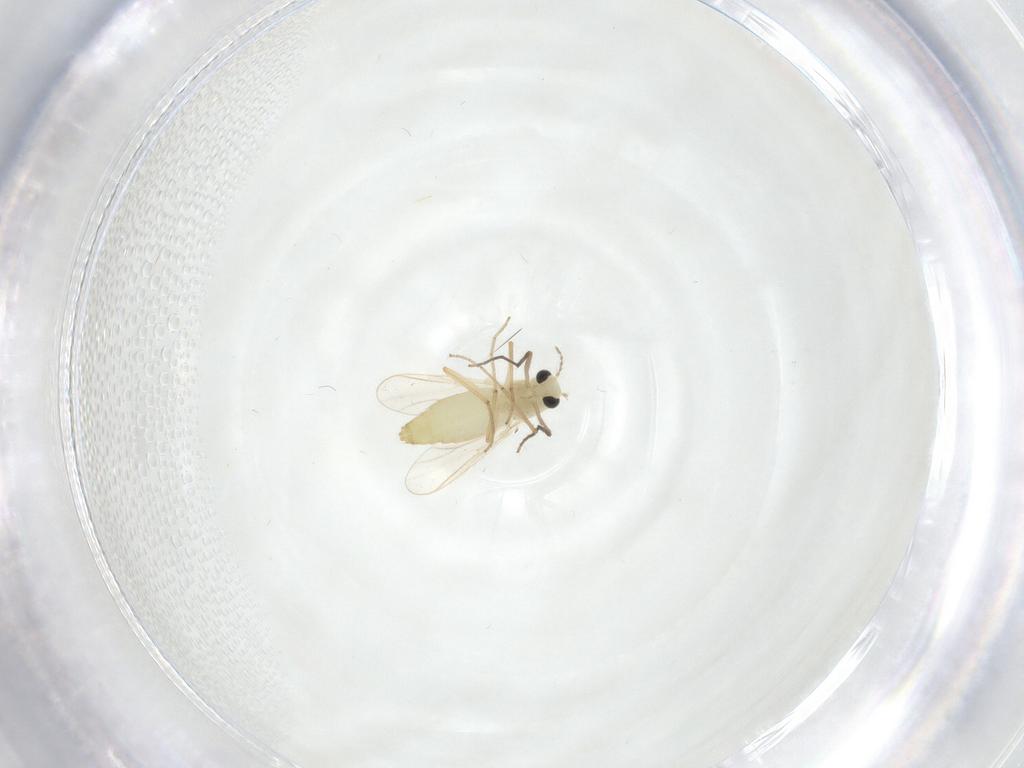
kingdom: Animalia
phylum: Arthropoda
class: Insecta
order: Diptera
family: Chironomidae
